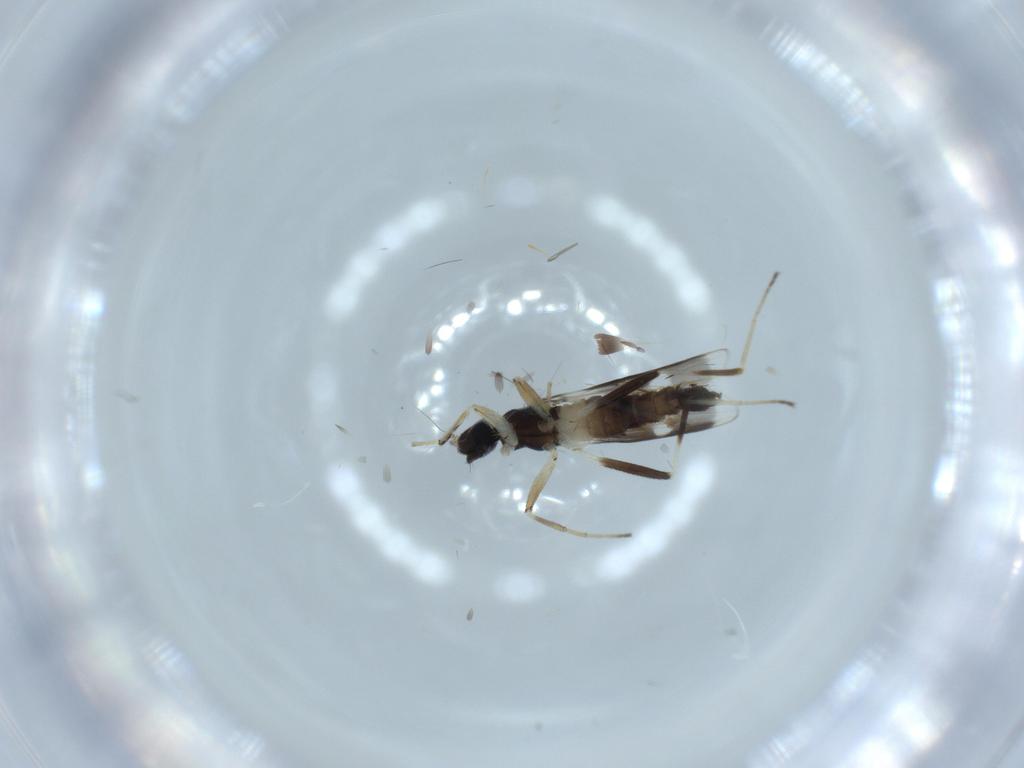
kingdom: Animalia
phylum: Arthropoda
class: Insecta
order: Diptera
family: Hybotidae
